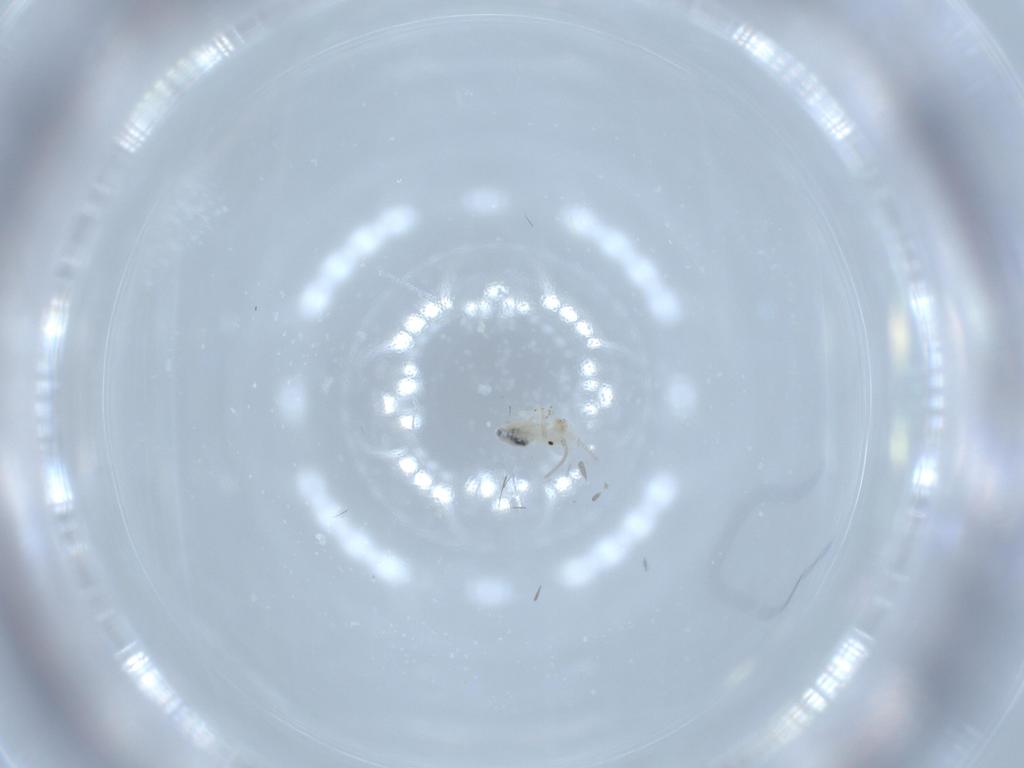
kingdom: Animalia
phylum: Arthropoda
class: Insecta
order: Psocodea
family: Caeciliusidae
